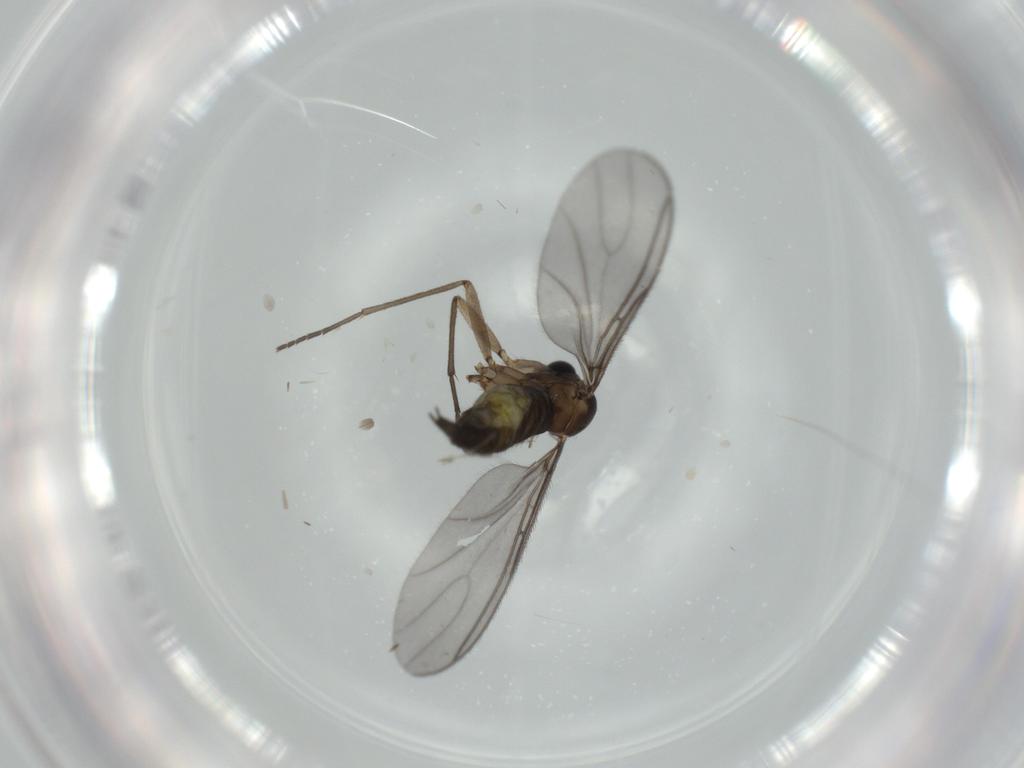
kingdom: Animalia
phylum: Arthropoda
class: Insecta
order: Diptera
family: Sciaridae
